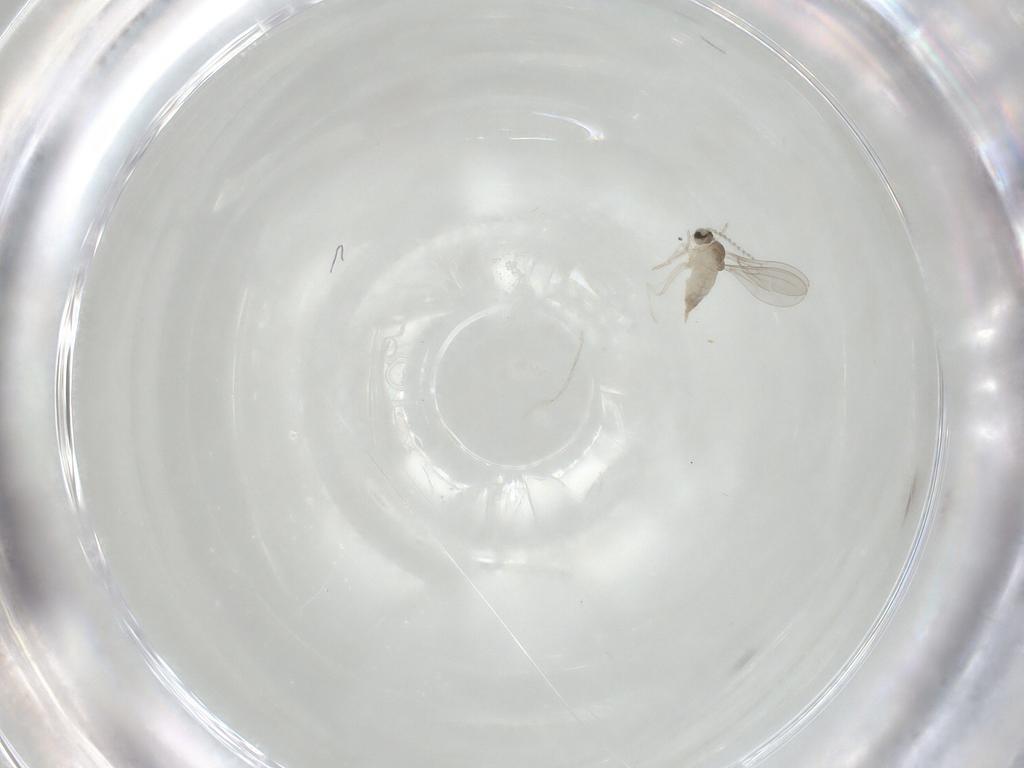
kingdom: Animalia
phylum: Arthropoda
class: Insecta
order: Diptera
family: Cecidomyiidae
